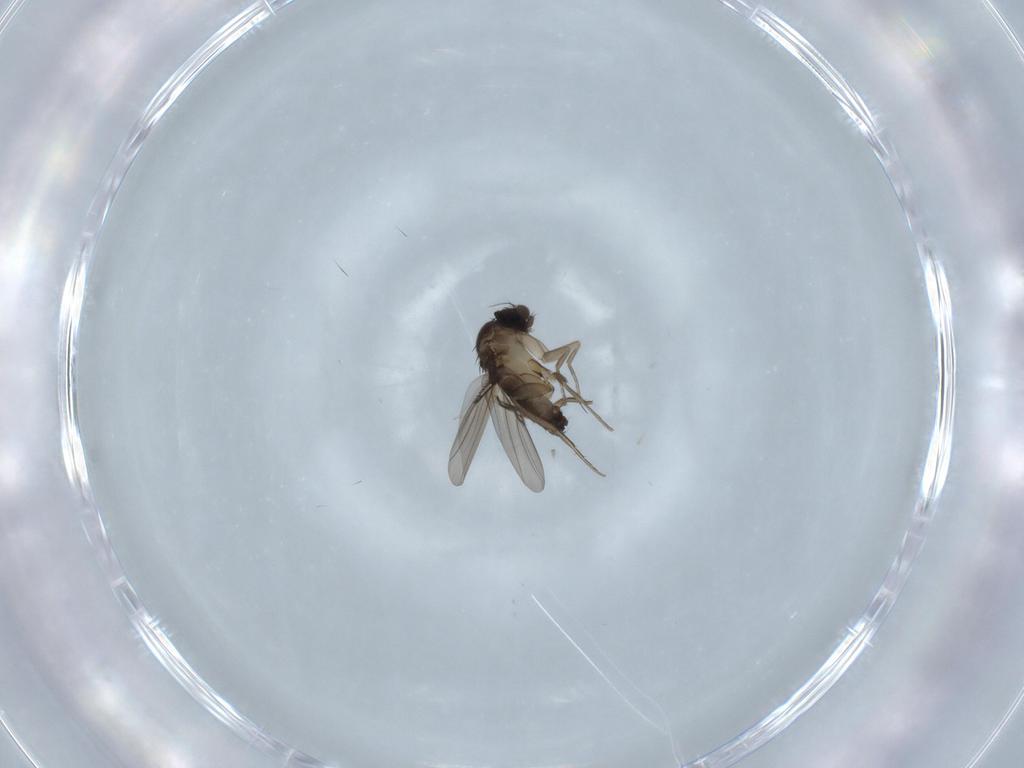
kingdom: Animalia
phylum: Arthropoda
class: Insecta
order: Diptera
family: Ceratopogonidae
